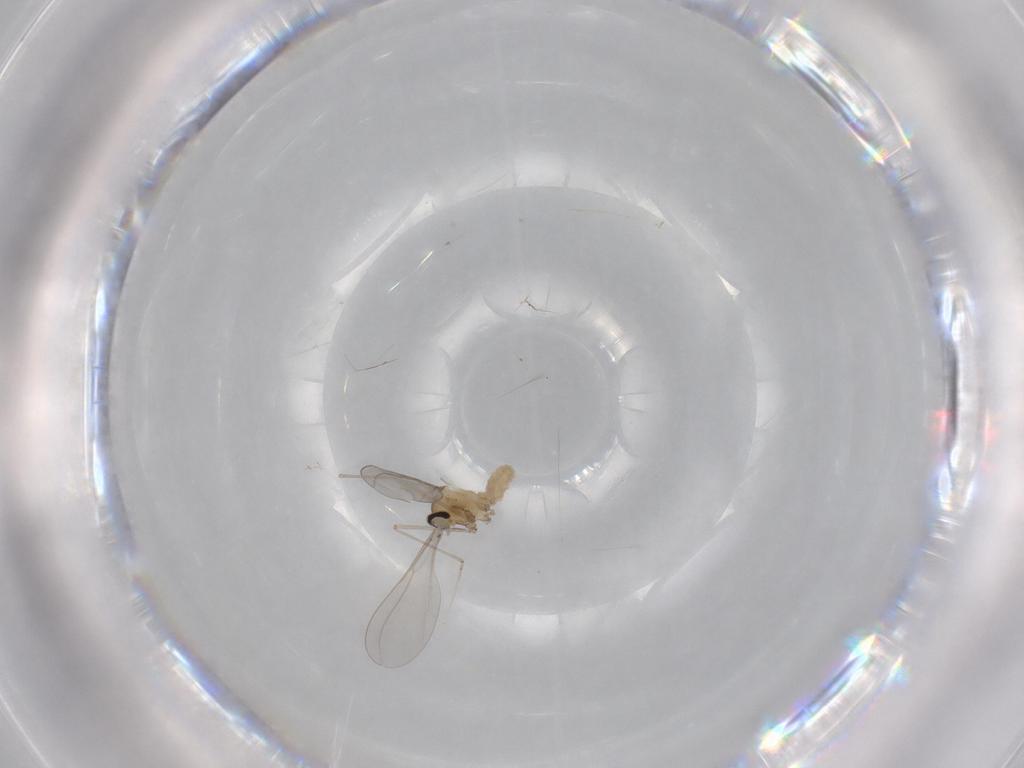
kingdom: Animalia
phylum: Arthropoda
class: Insecta
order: Diptera
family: Cecidomyiidae
